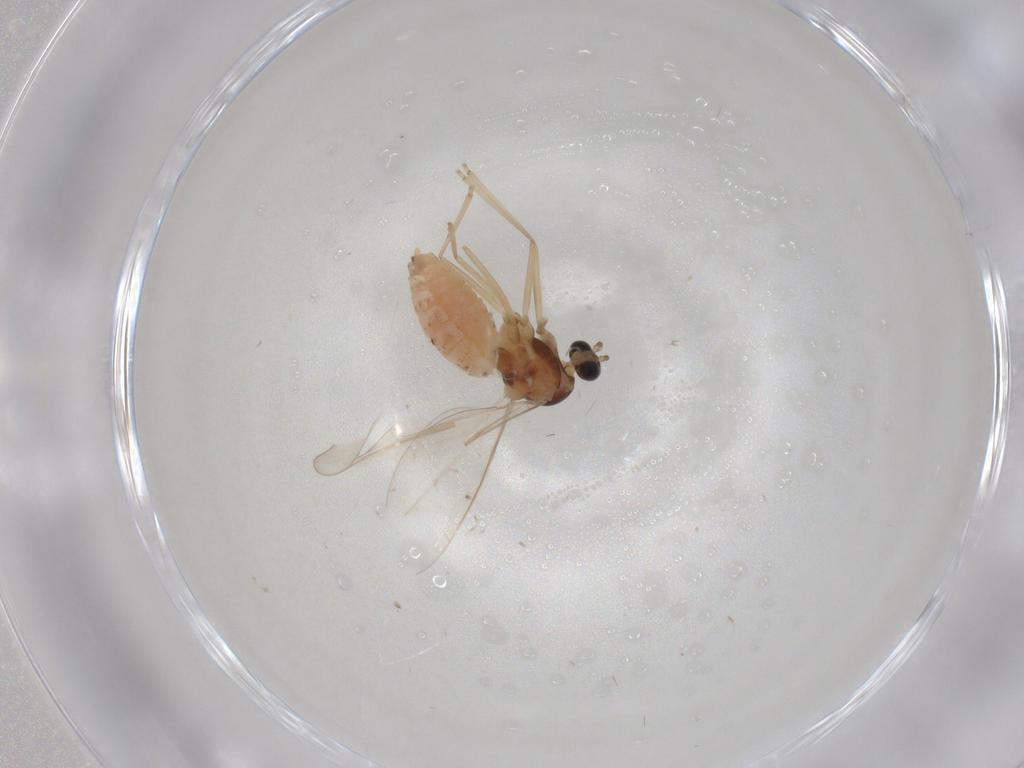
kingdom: Animalia
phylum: Arthropoda
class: Insecta
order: Diptera
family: Cecidomyiidae
